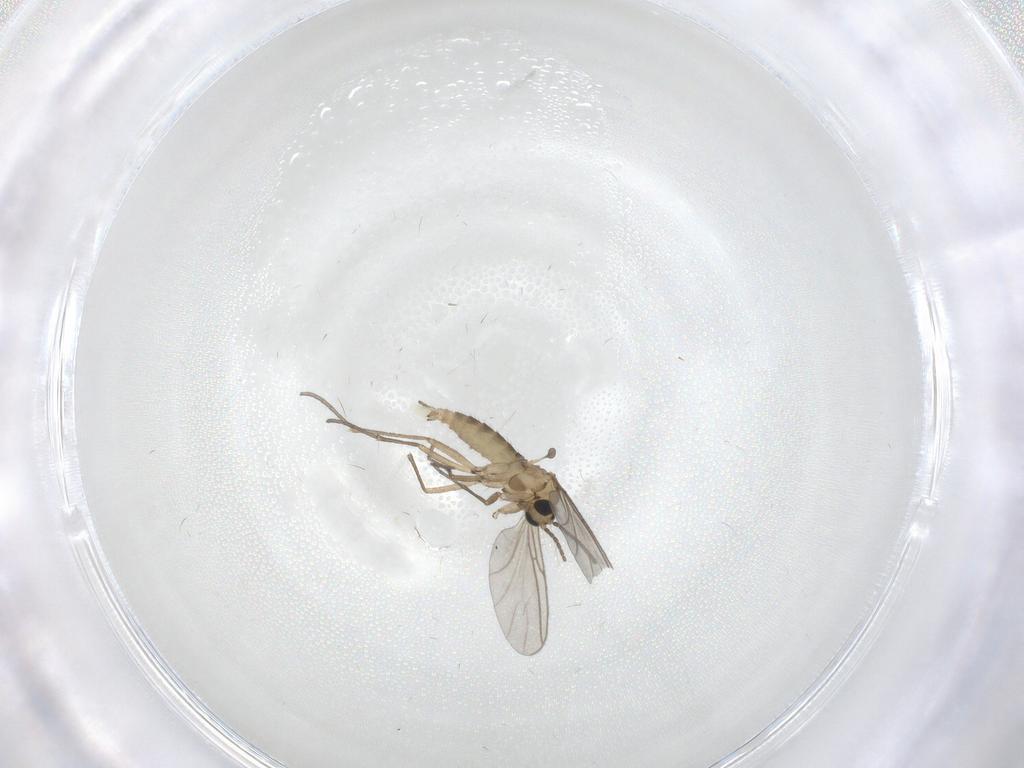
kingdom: Animalia
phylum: Arthropoda
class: Insecta
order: Diptera
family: Sciaridae
